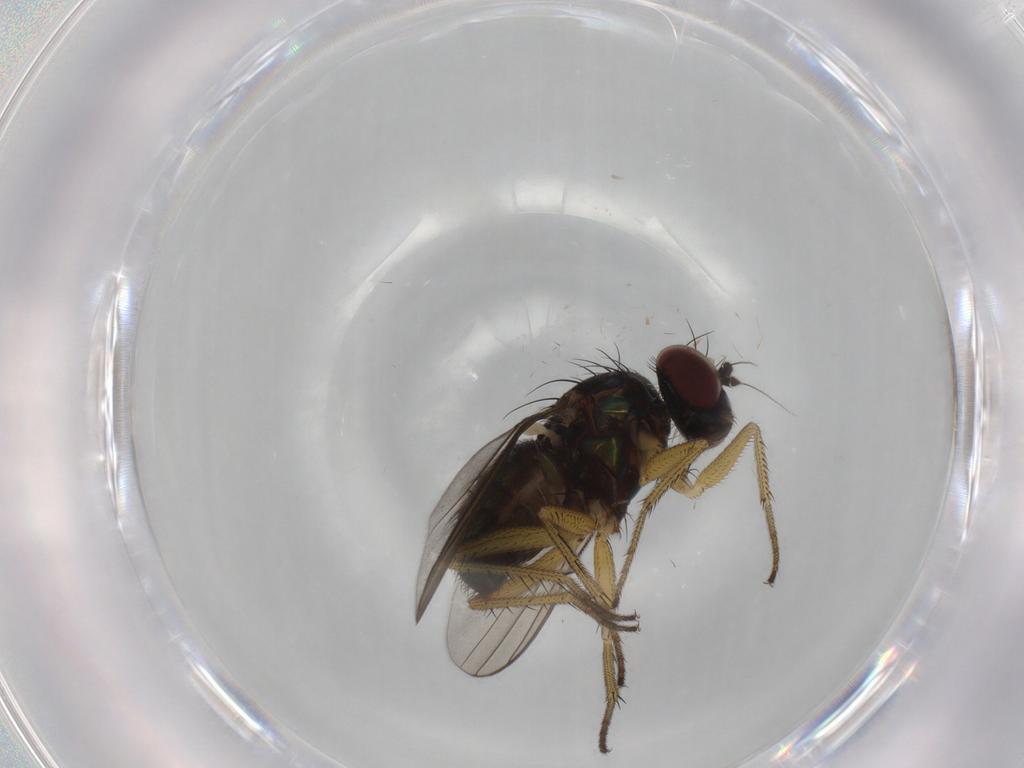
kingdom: Animalia
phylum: Arthropoda
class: Insecta
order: Diptera
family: Dolichopodidae
